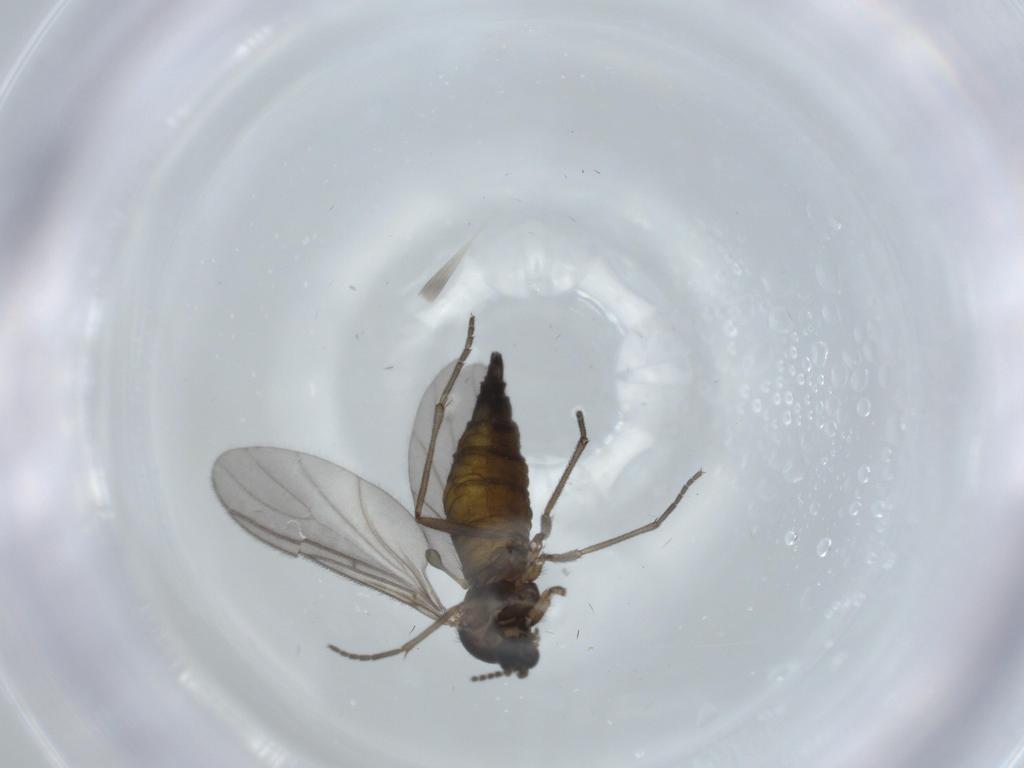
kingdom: Animalia
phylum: Arthropoda
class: Insecta
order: Diptera
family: Sciaridae
